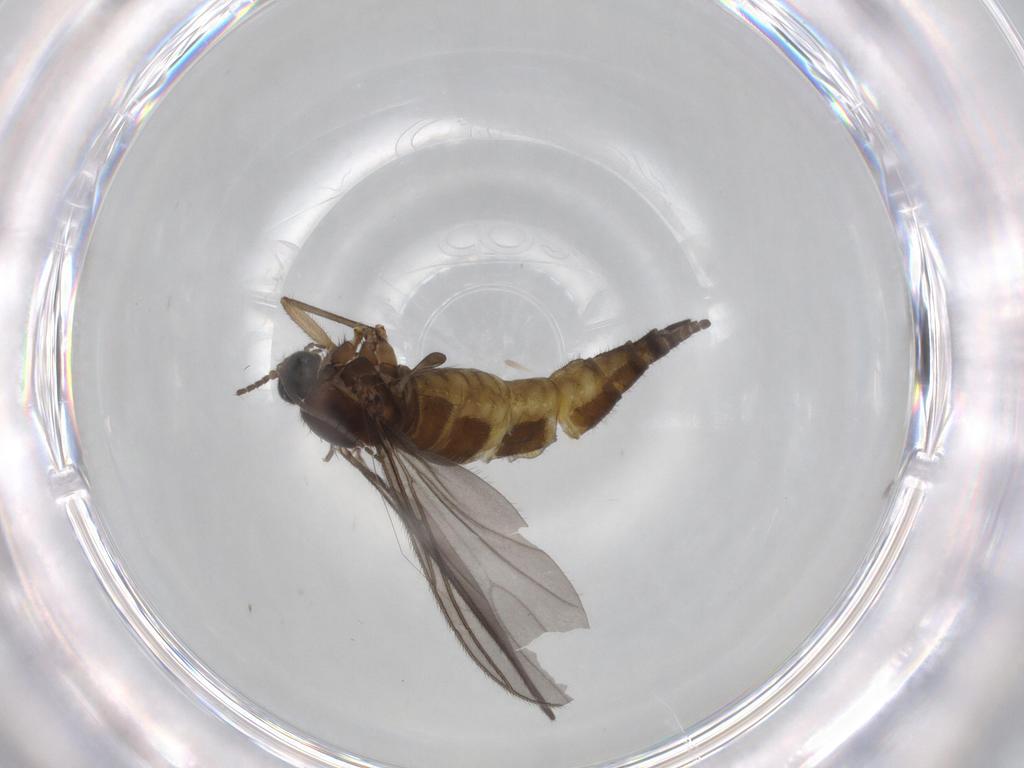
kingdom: Animalia
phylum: Arthropoda
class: Insecta
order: Diptera
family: Sciaridae
